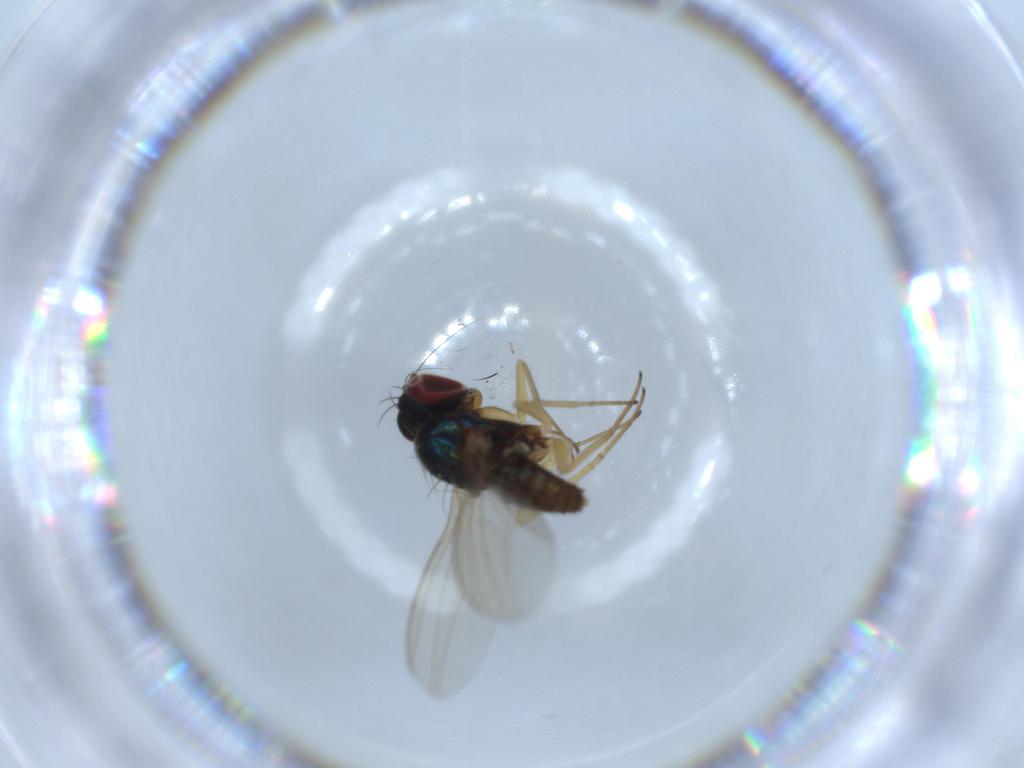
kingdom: Animalia
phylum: Arthropoda
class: Insecta
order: Diptera
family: Dolichopodidae
